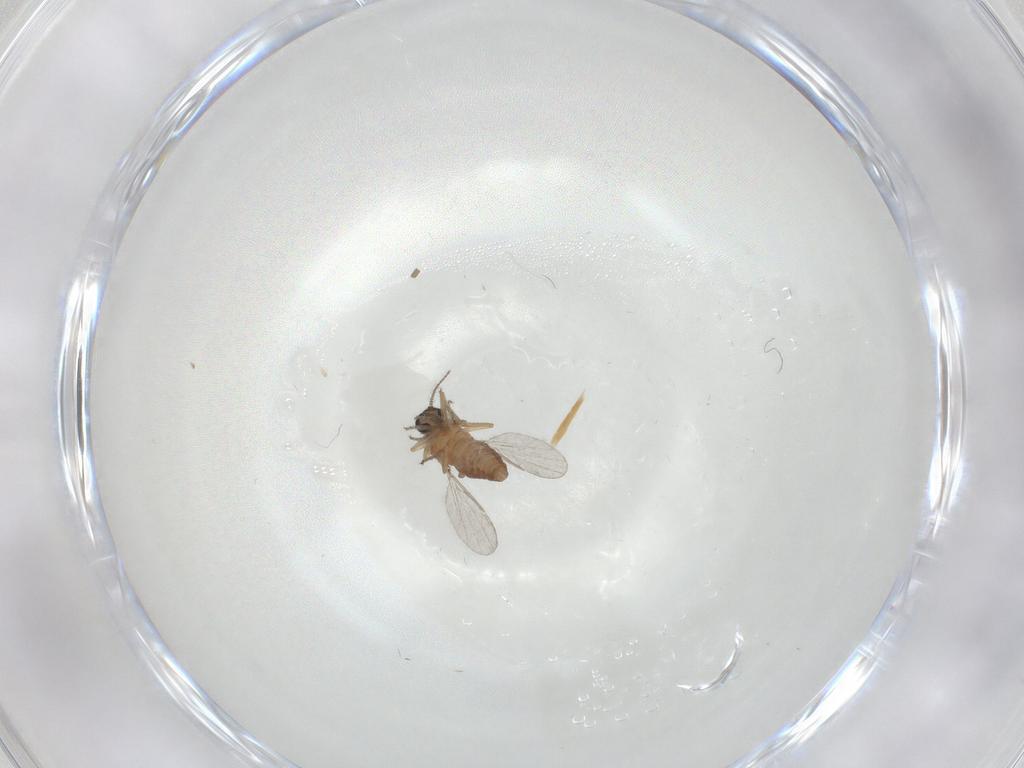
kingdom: Animalia
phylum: Arthropoda
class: Insecta
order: Diptera
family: Ceratopogonidae
